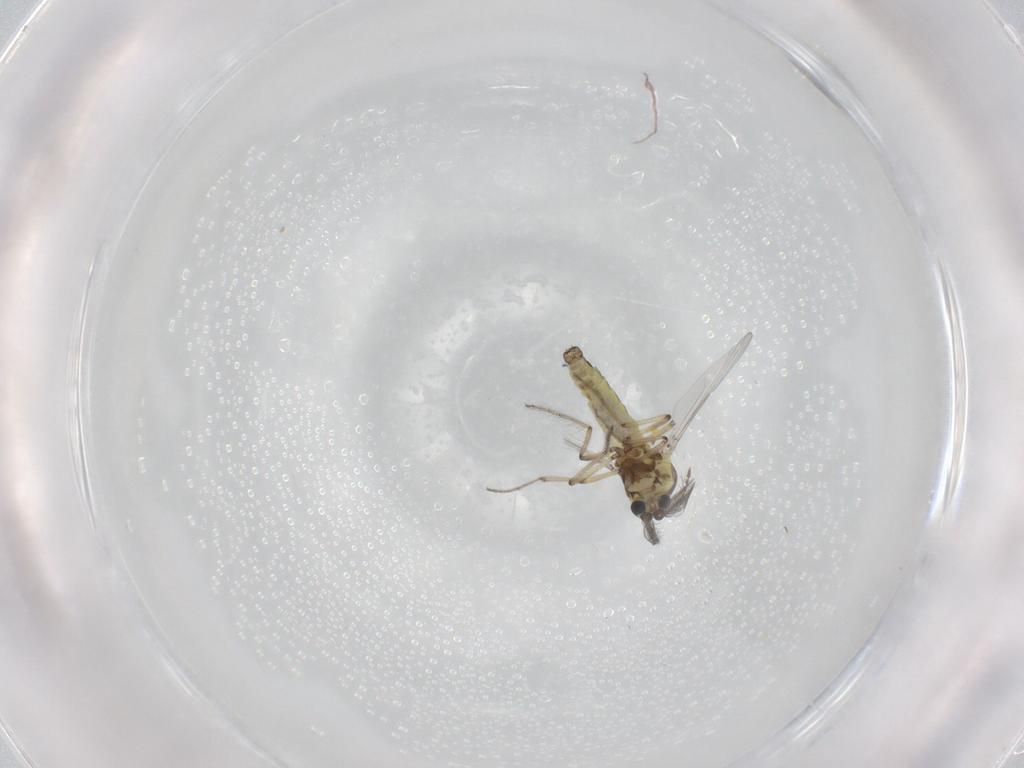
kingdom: Animalia
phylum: Arthropoda
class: Insecta
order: Diptera
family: Ceratopogonidae
